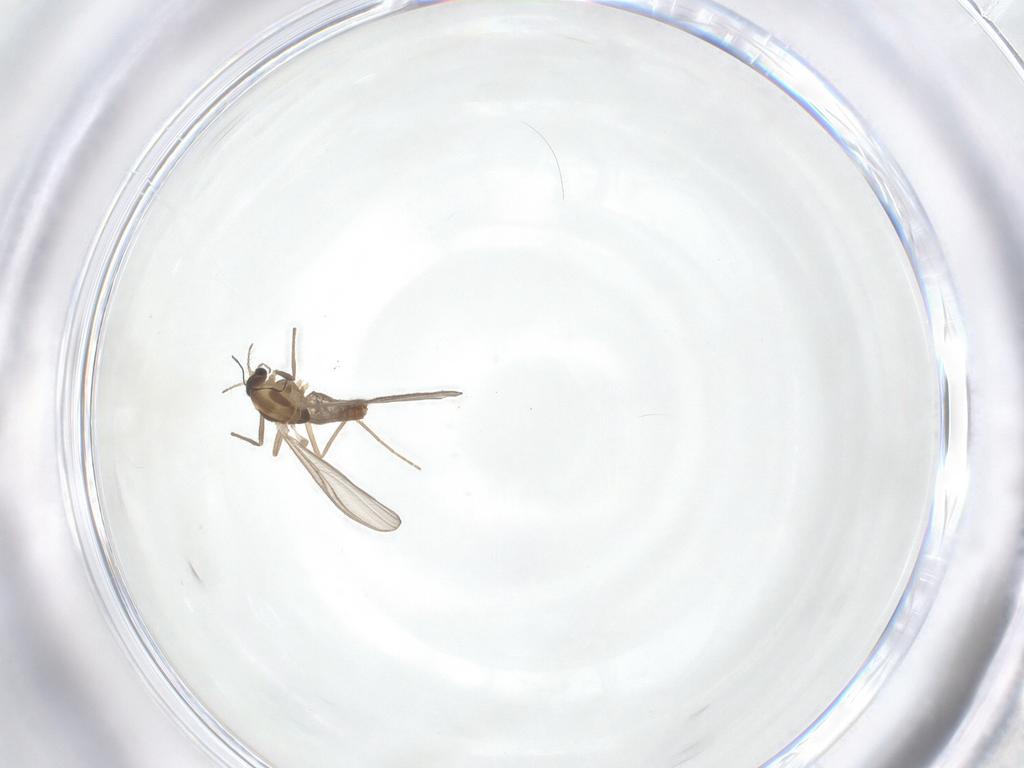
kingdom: Animalia
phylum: Arthropoda
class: Insecta
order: Diptera
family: Chironomidae
